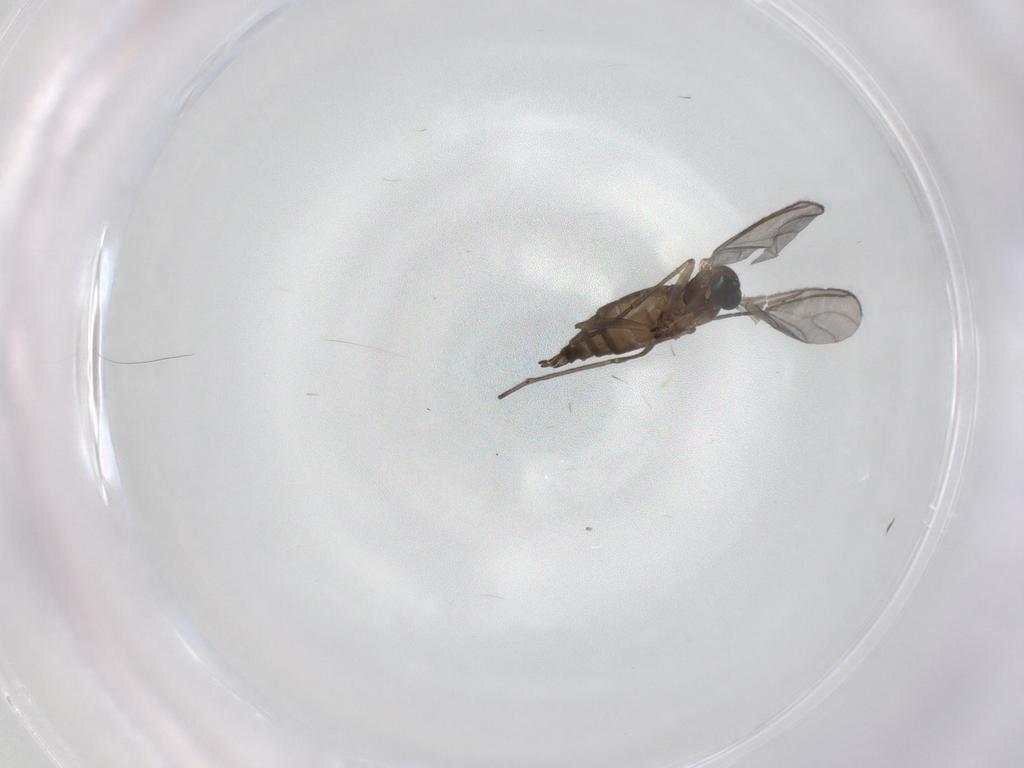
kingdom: Animalia
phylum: Arthropoda
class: Insecta
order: Diptera
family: Sciaridae
